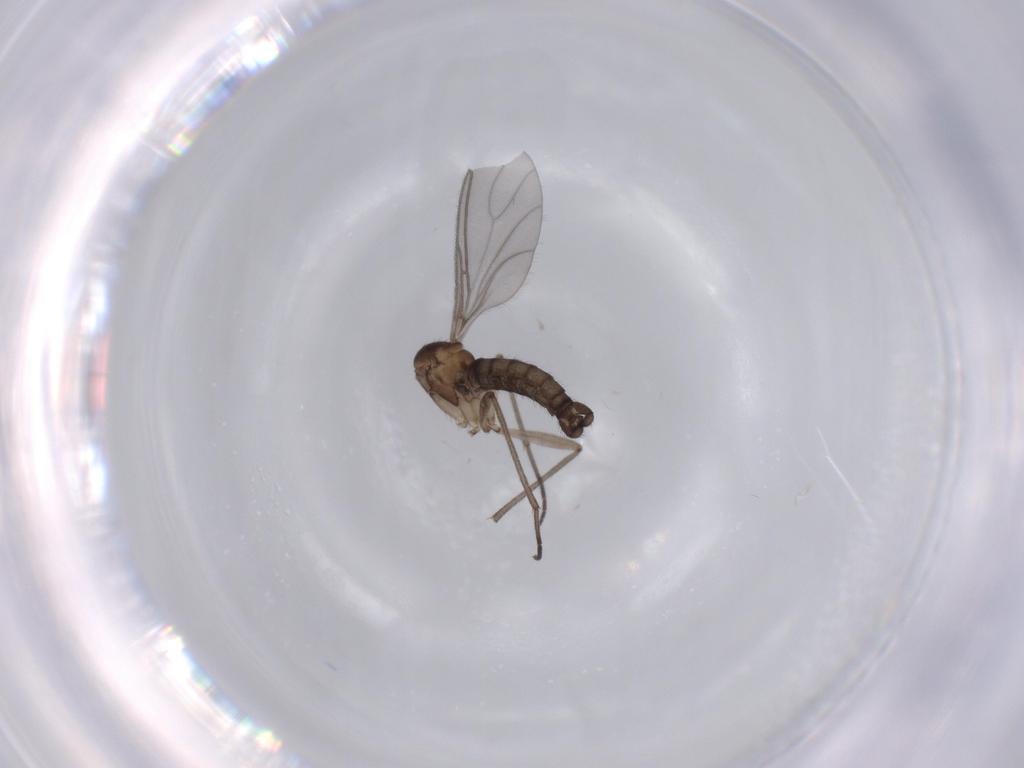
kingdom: Animalia
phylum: Arthropoda
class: Insecta
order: Diptera
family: Sciaridae
